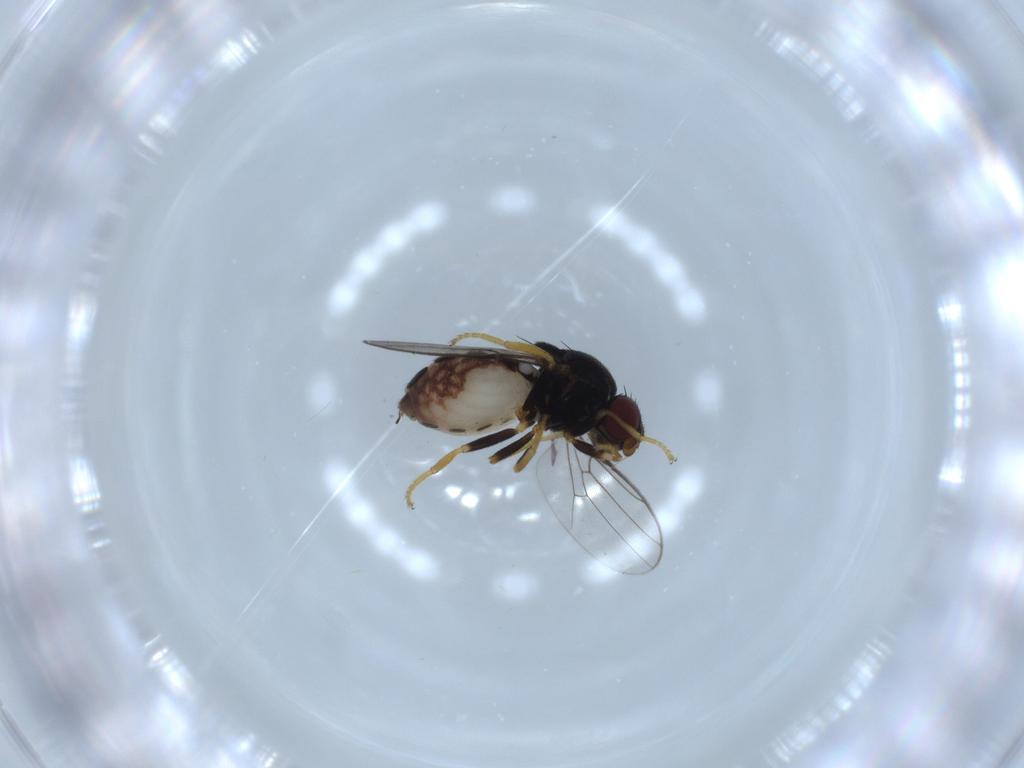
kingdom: Animalia
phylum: Arthropoda
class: Insecta
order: Diptera
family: Chloropidae
